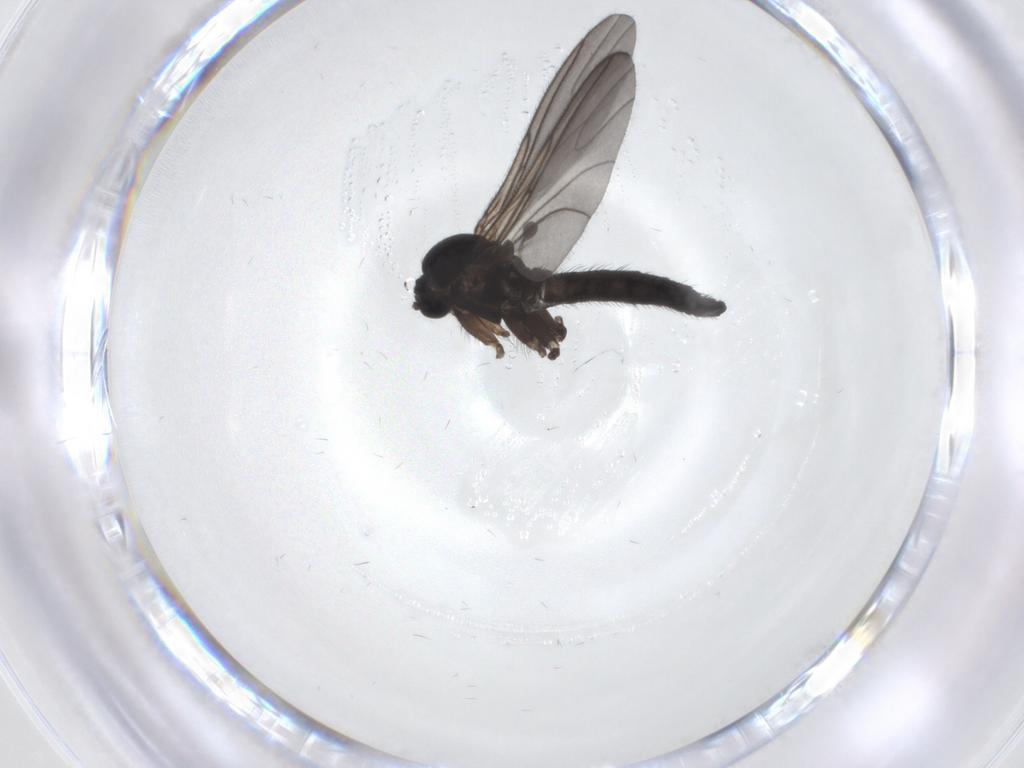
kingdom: Animalia
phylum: Arthropoda
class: Insecta
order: Diptera
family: Sciaridae
